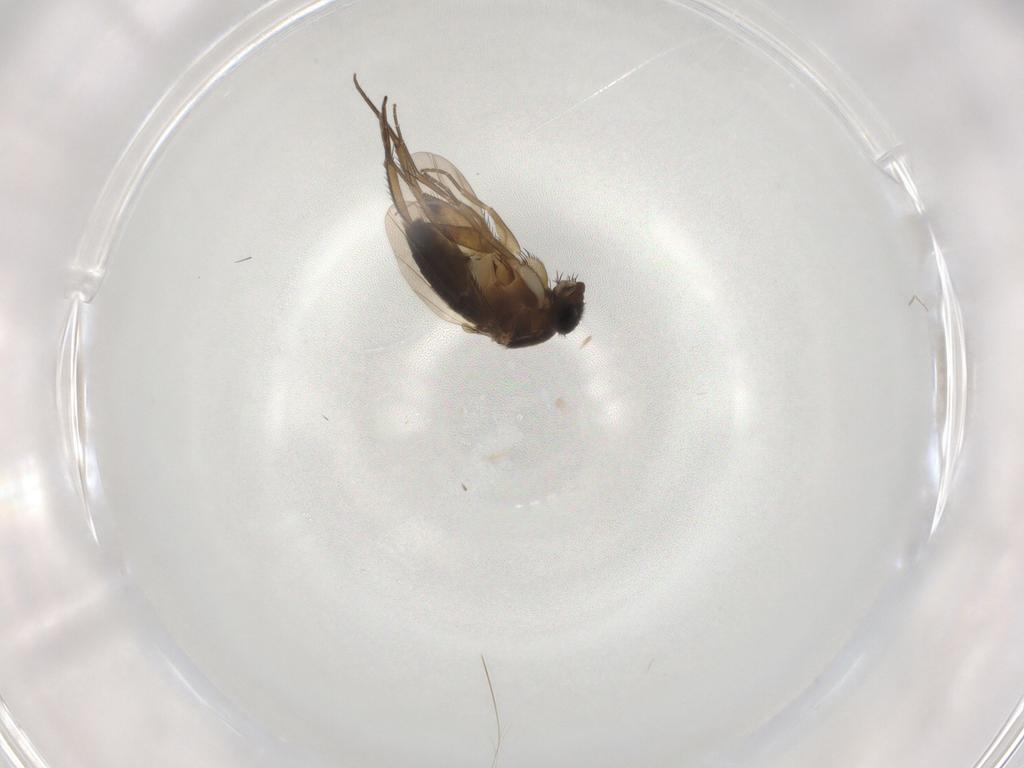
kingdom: Animalia
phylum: Arthropoda
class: Insecta
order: Diptera
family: Phoridae
